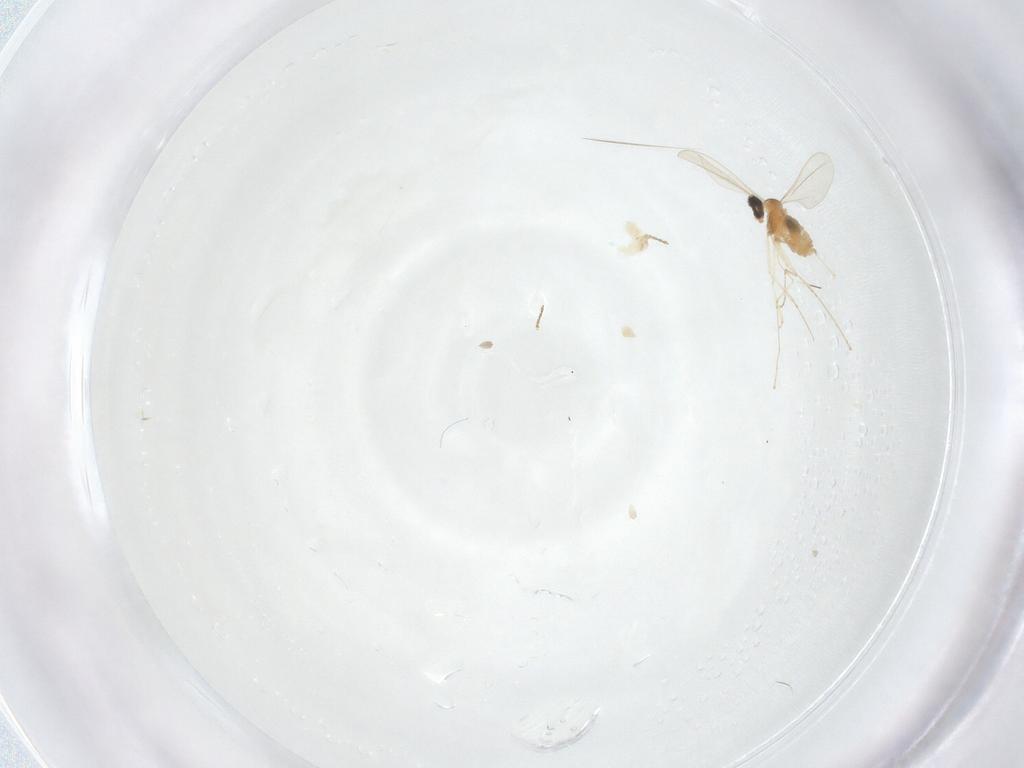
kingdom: Animalia
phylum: Arthropoda
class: Insecta
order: Diptera
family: Cecidomyiidae
